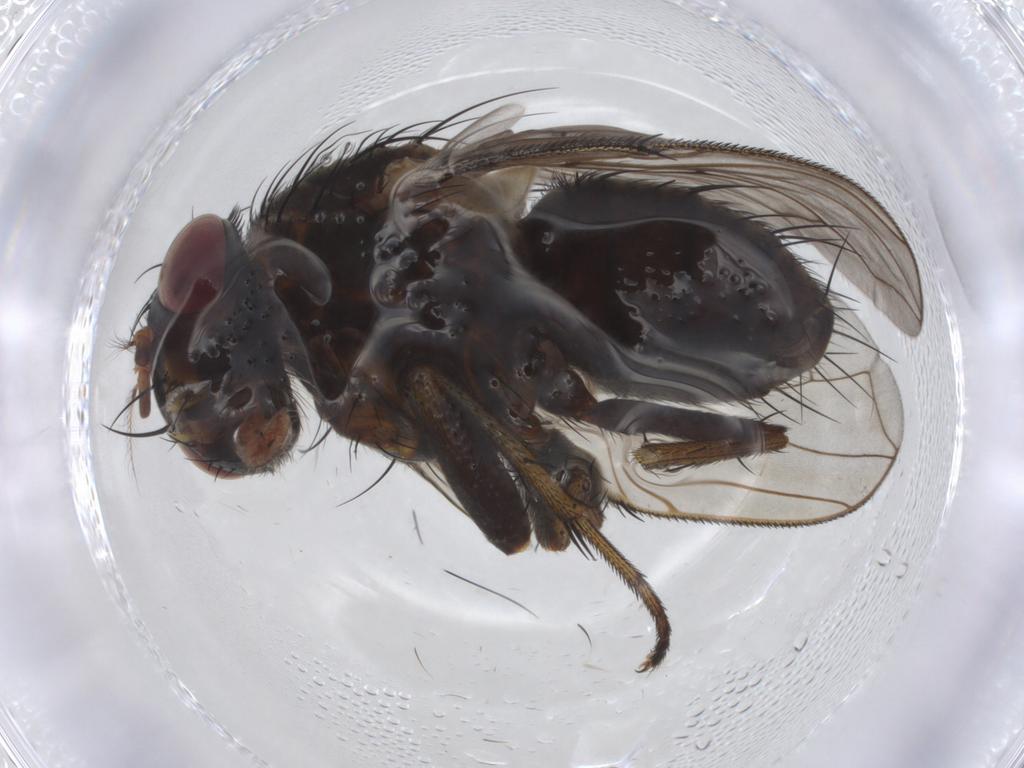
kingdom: Animalia
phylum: Arthropoda
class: Insecta
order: Diptera
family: Tachinidae
